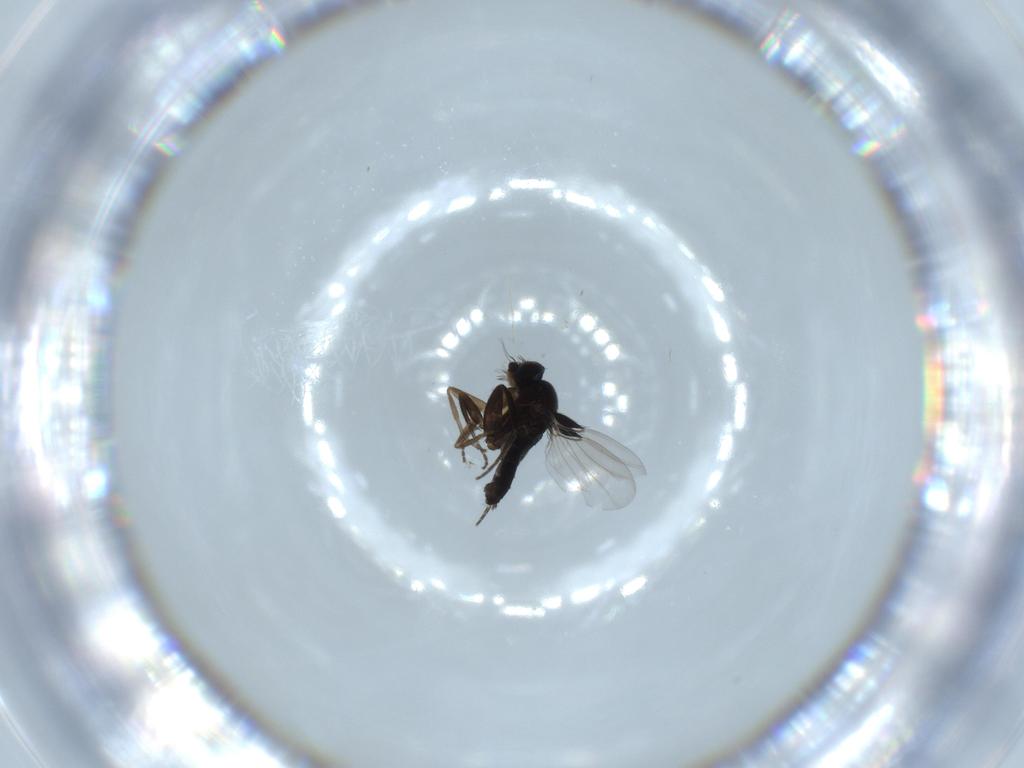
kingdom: Animalia
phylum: Arthropoda
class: Insecta
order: Diptera
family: Phoridae
